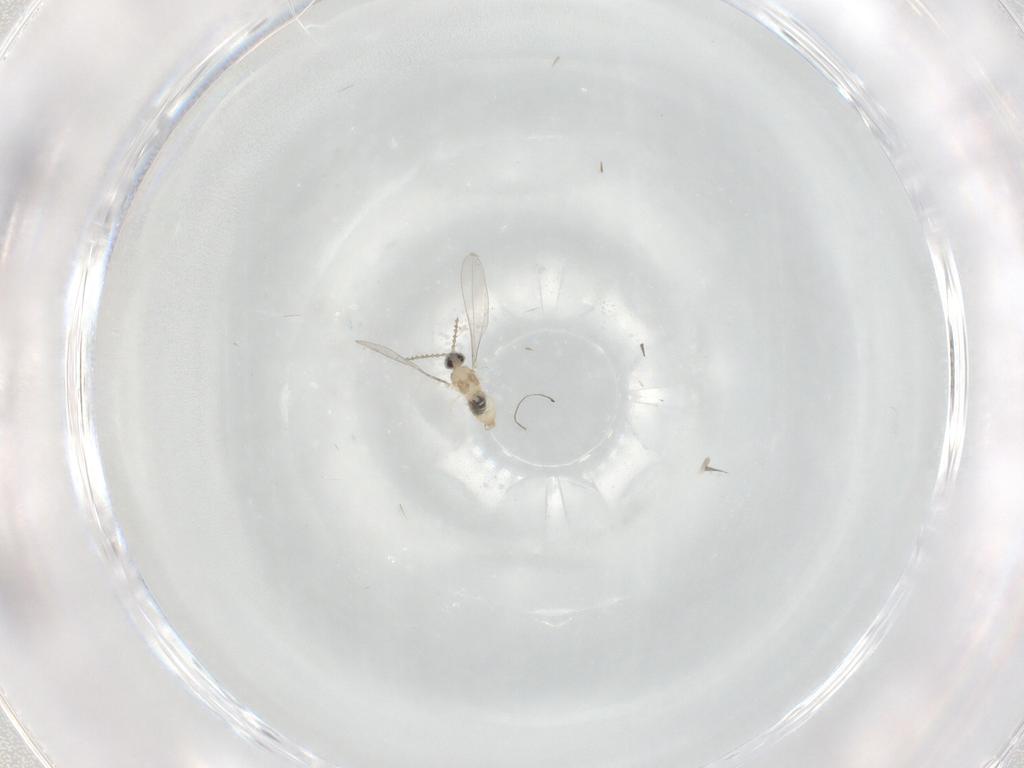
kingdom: Animalia
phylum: Arthropoda
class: Insecta
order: Diptera
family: Cecidomyiidae
